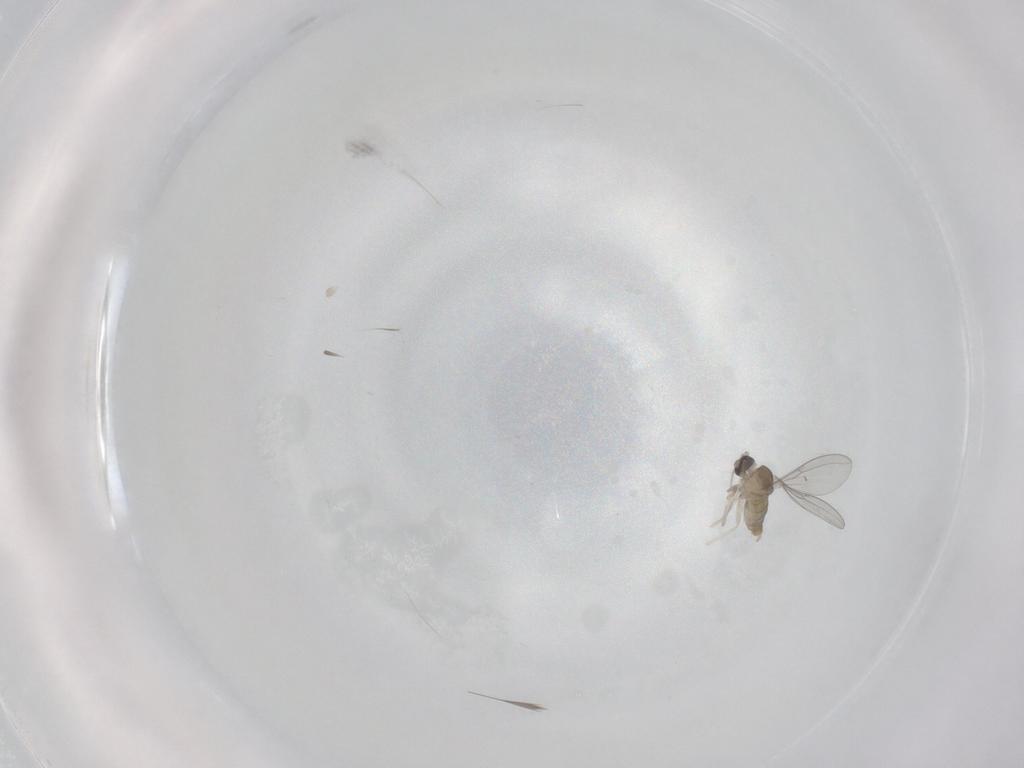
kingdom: Animalia
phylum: Arthropoda
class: Insecta
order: Diptera
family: Cecidomyiidae
